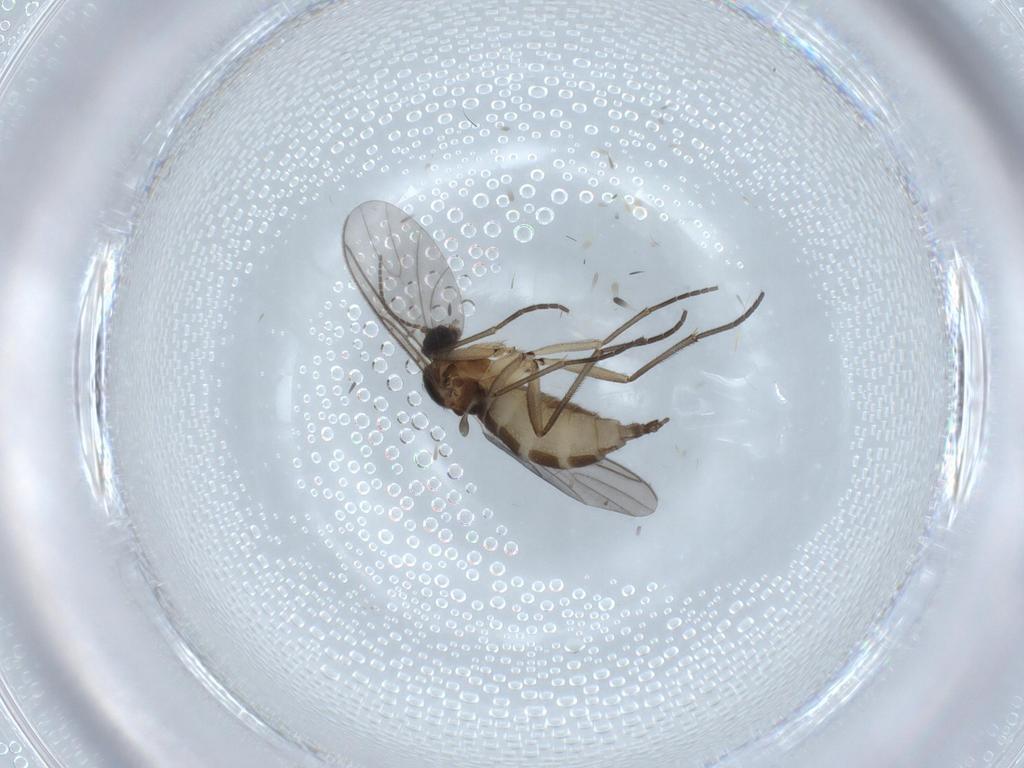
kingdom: Animalia
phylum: Arthropoda
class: Insecta
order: Diptera
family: Sciaridae
